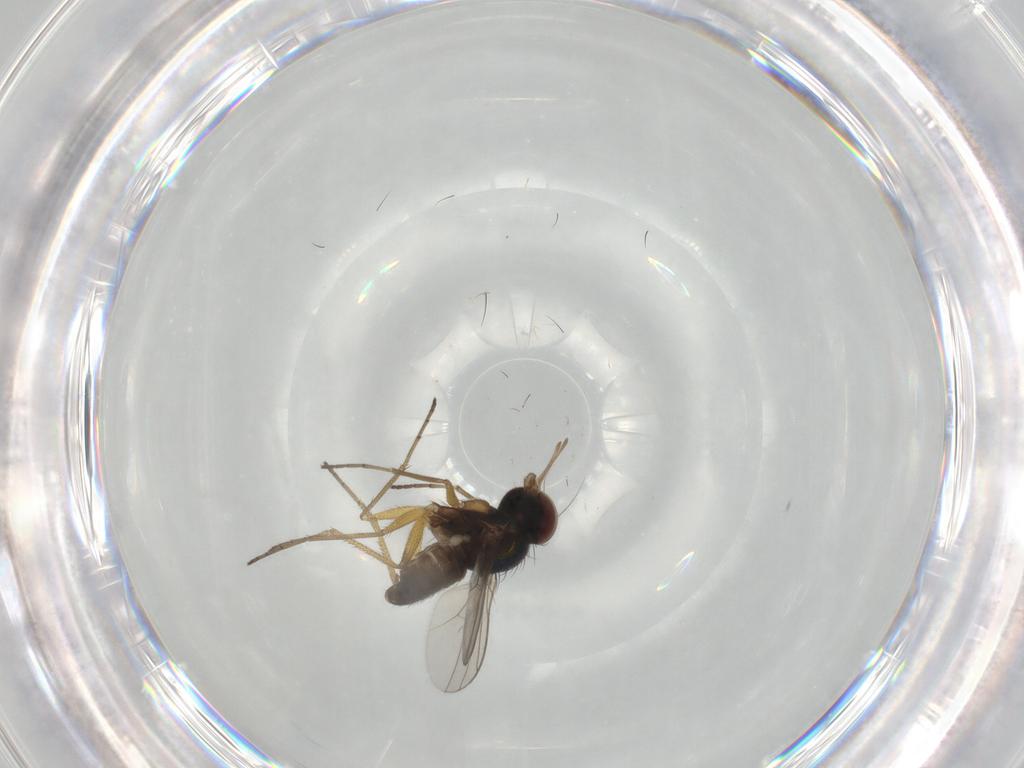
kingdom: Animalia
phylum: Arthropoda
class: Insecta
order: Diptera
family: Dolichopodidae
